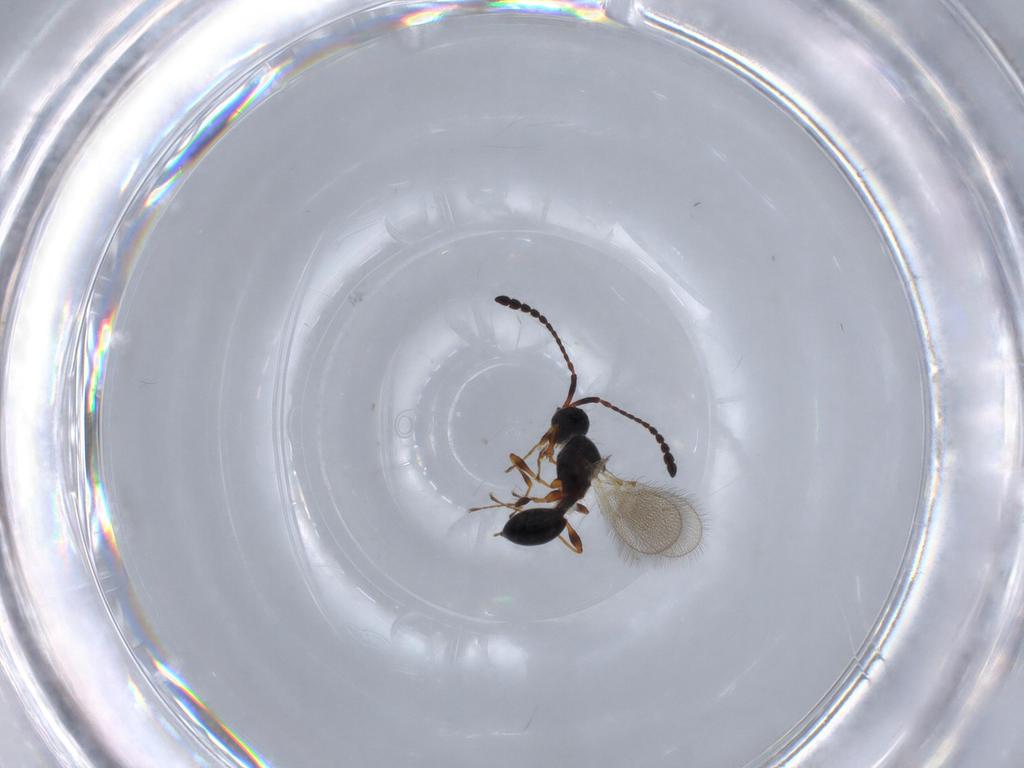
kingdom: Animalia
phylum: Arthropoda
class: Insecta
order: Hymenoptera
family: Diapriidae
